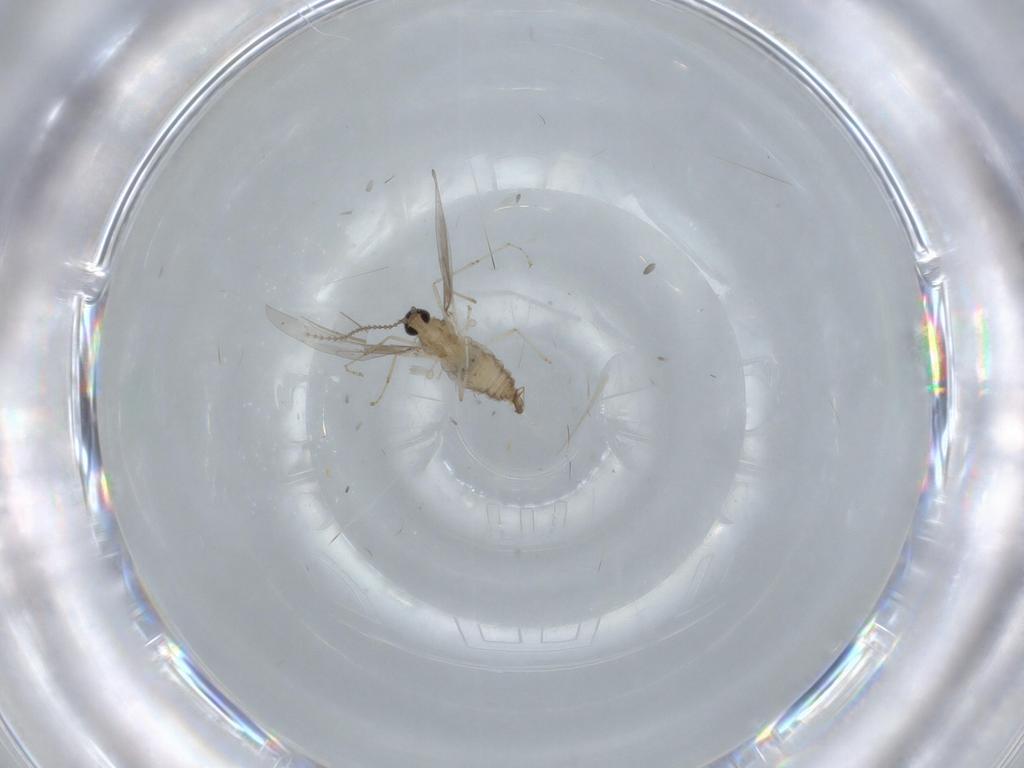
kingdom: Animalia
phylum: Arthropoda
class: Insecta
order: Diptera
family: Cecidomyiidae
